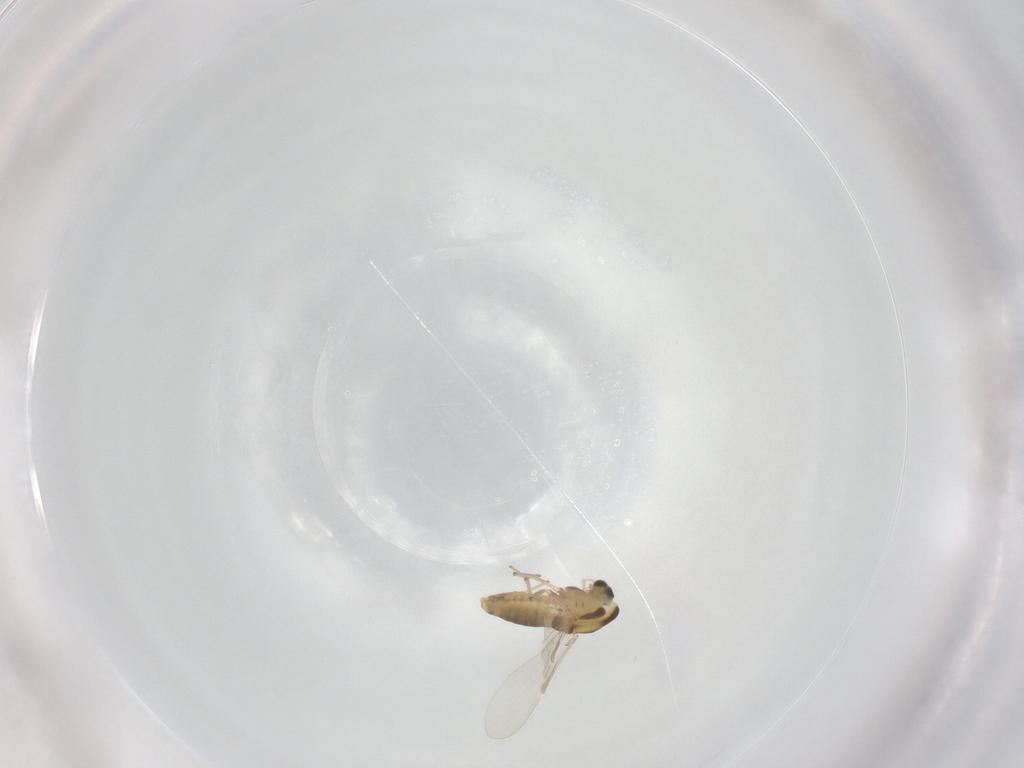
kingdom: Animalia
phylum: Arthropoda
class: Insecta
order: Diptera
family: Chironomidae
